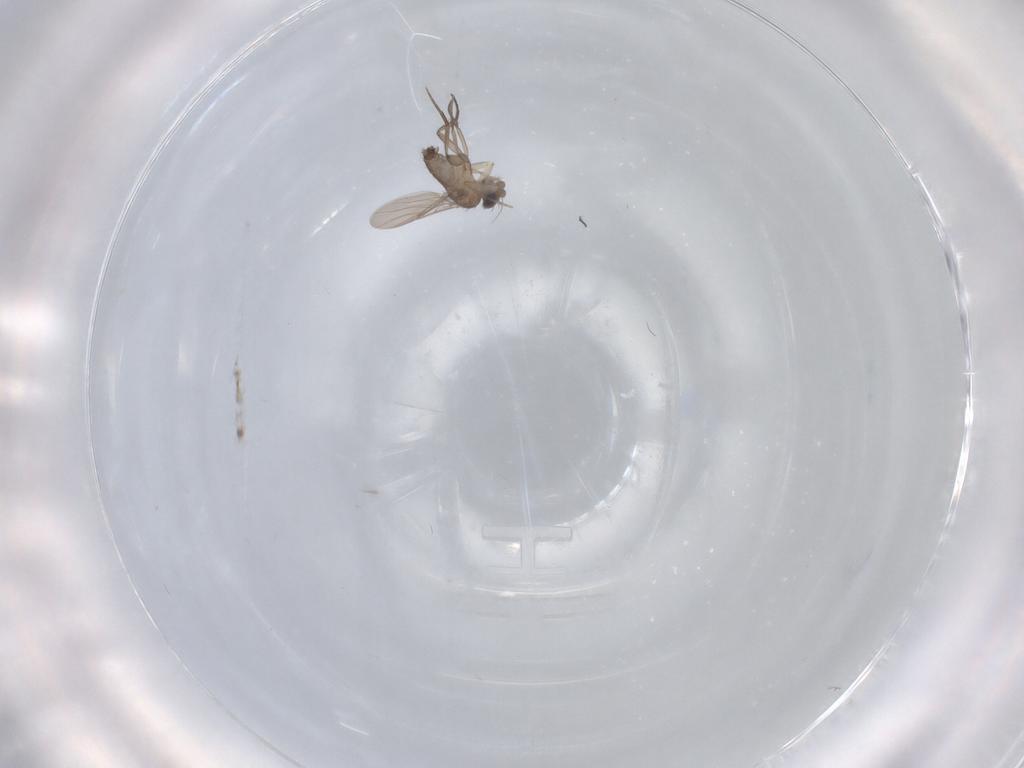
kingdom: Animalia
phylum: Arthropoda
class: Insecta
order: Diptera
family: Phoridae
